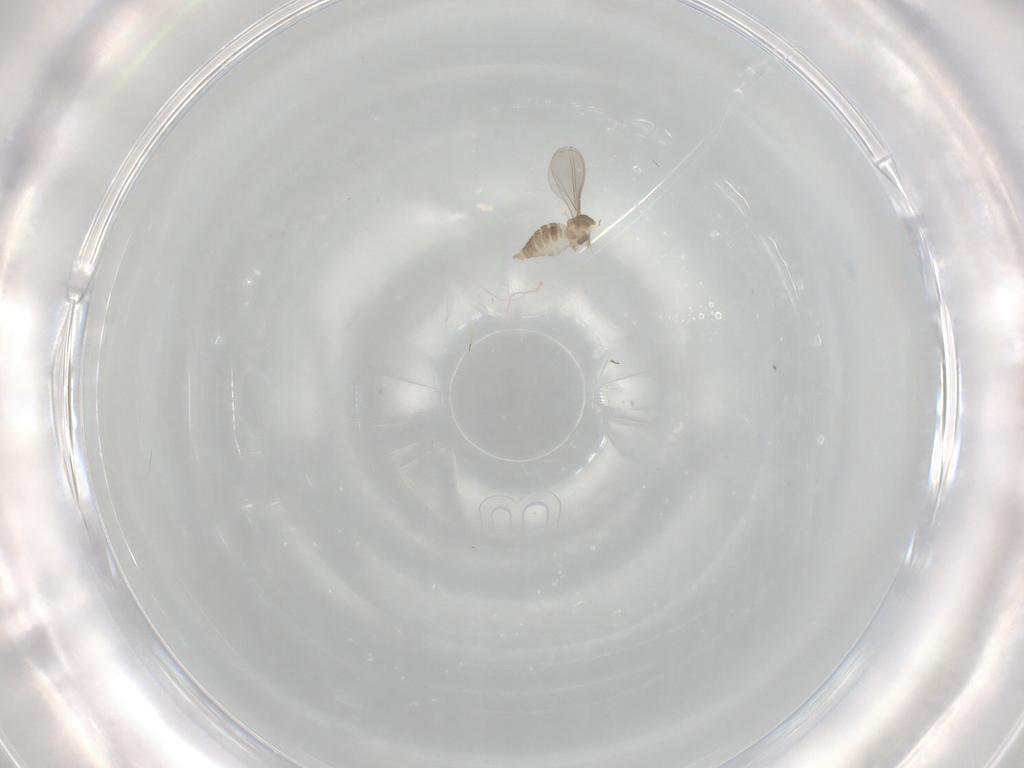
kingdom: Animalia
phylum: Arthropoda
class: Insecta
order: Diptera
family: Cecidomyiidae
